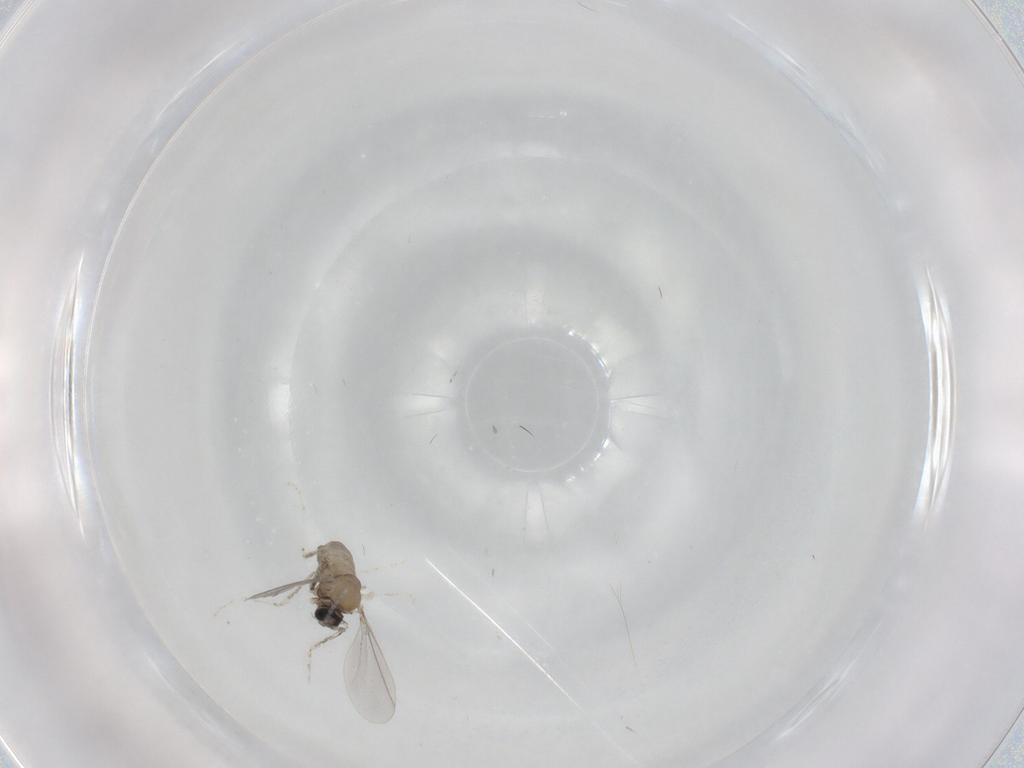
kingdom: Animalia
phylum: Arthropoda
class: Insecta
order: Diptera
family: Cecidomyiidae
